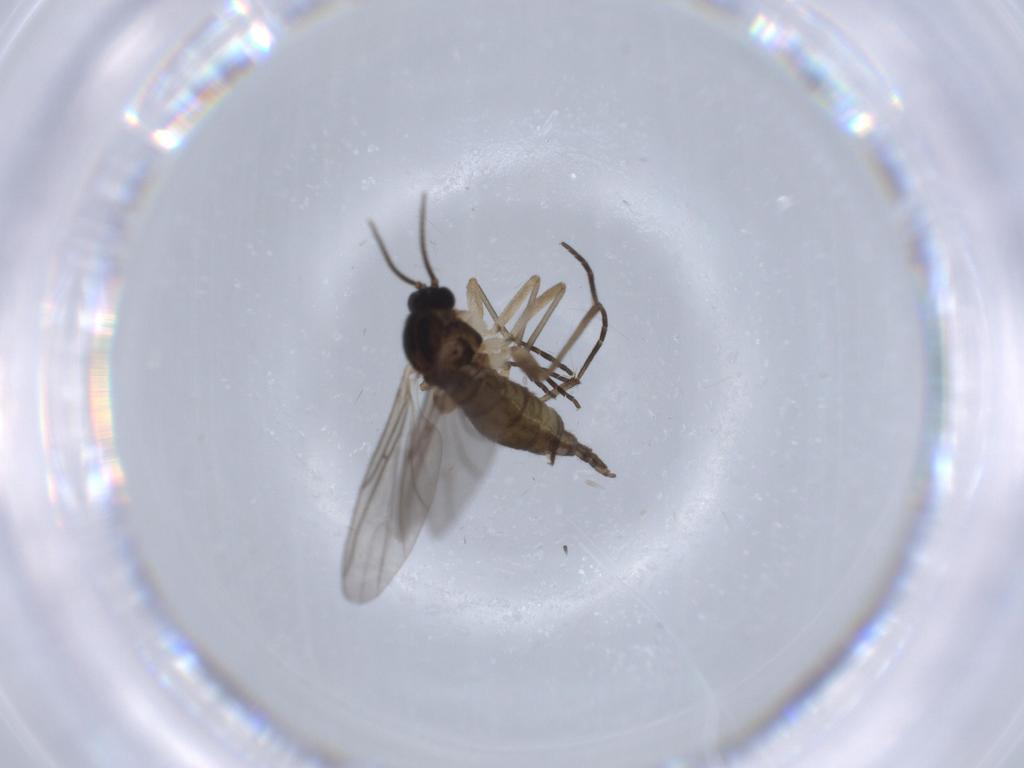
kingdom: Animalia
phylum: Arthropoda
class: Insecta
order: Diptera
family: Sciaridae
